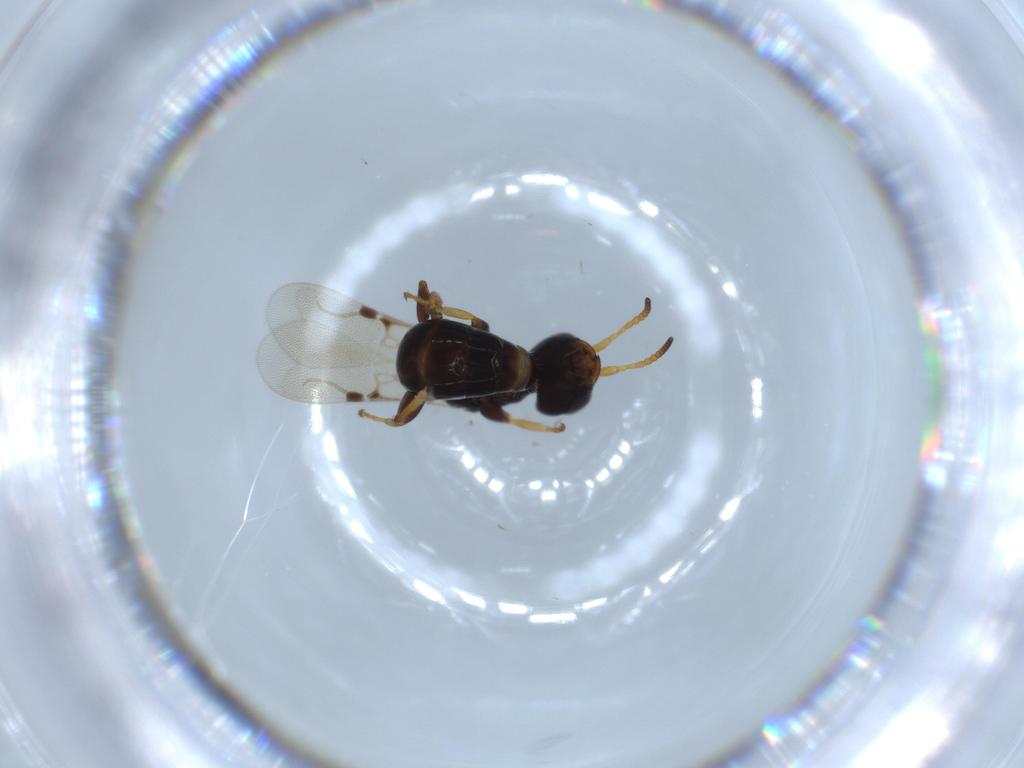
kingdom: Animalia
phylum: Arthropoda
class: Insecta
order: Hymenoptera
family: Bethylidae
